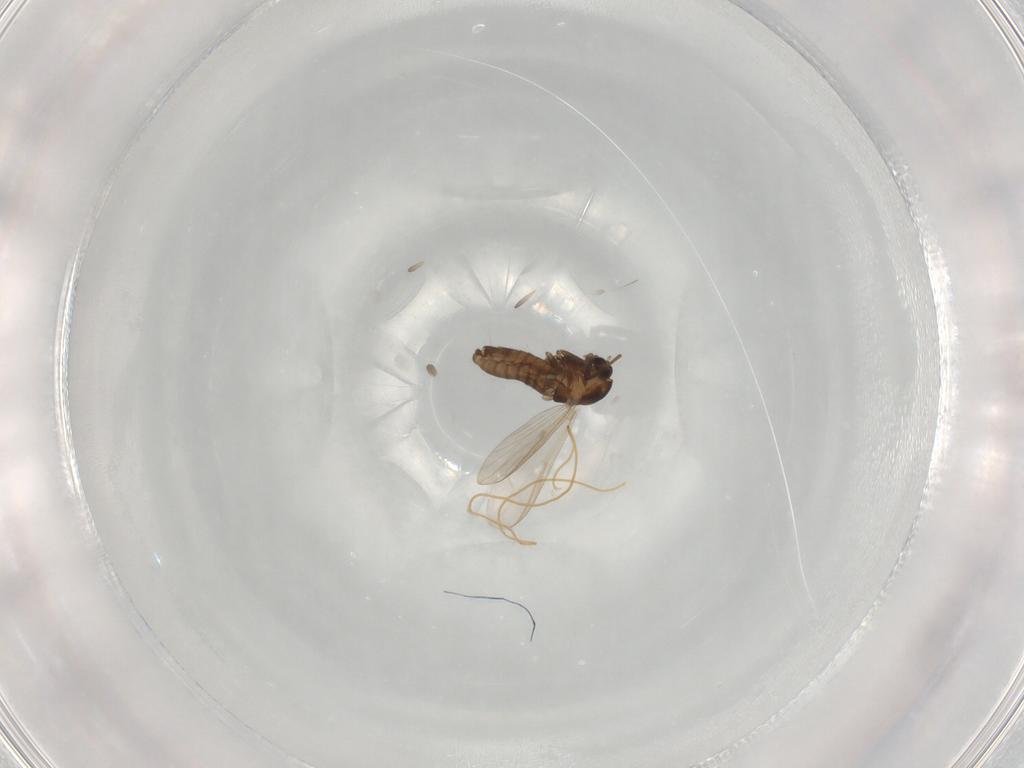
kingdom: Animalia
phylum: Arthropoda
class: Insecta
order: Diptera
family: Chironomidae
